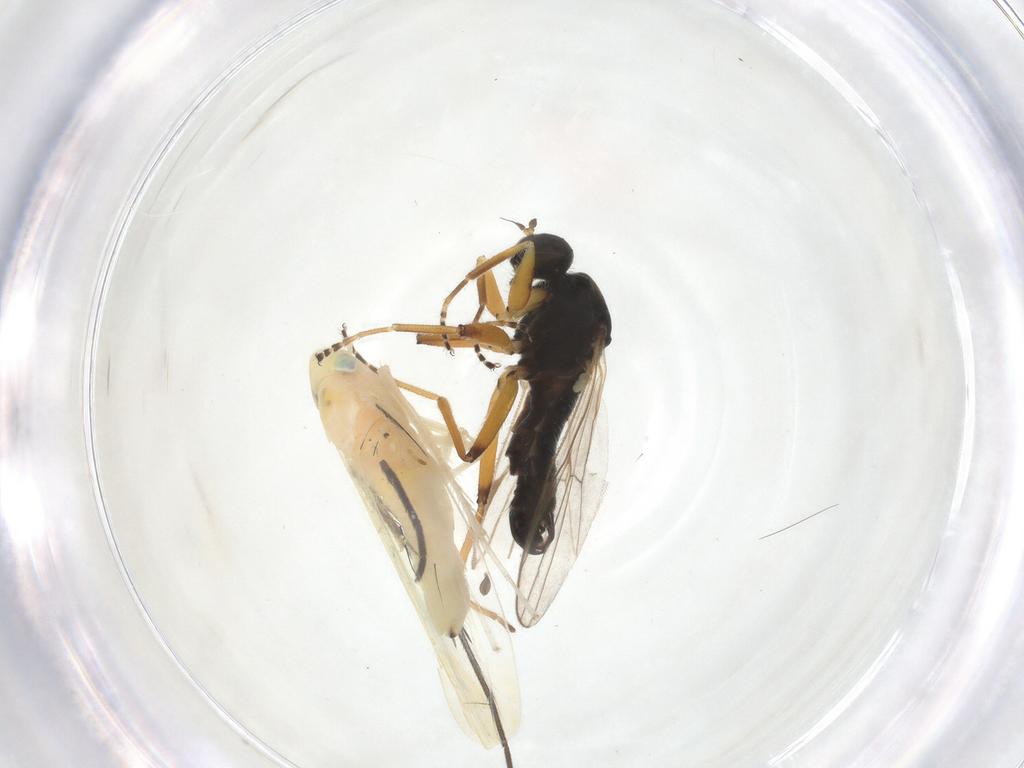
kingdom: Animalia
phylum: Arthropoda
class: Insecta
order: Hemiptera
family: Cicadellidae
